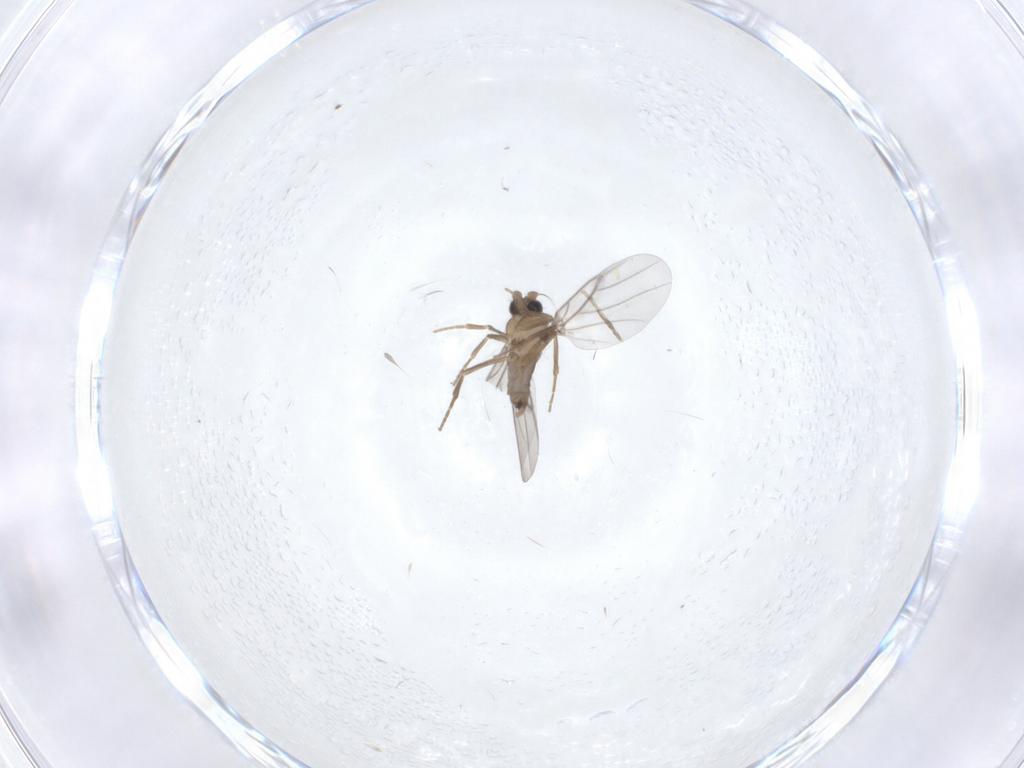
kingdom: Animalia
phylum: Arthropoda
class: Insecta
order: Diptera
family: Cecidomyiidae
